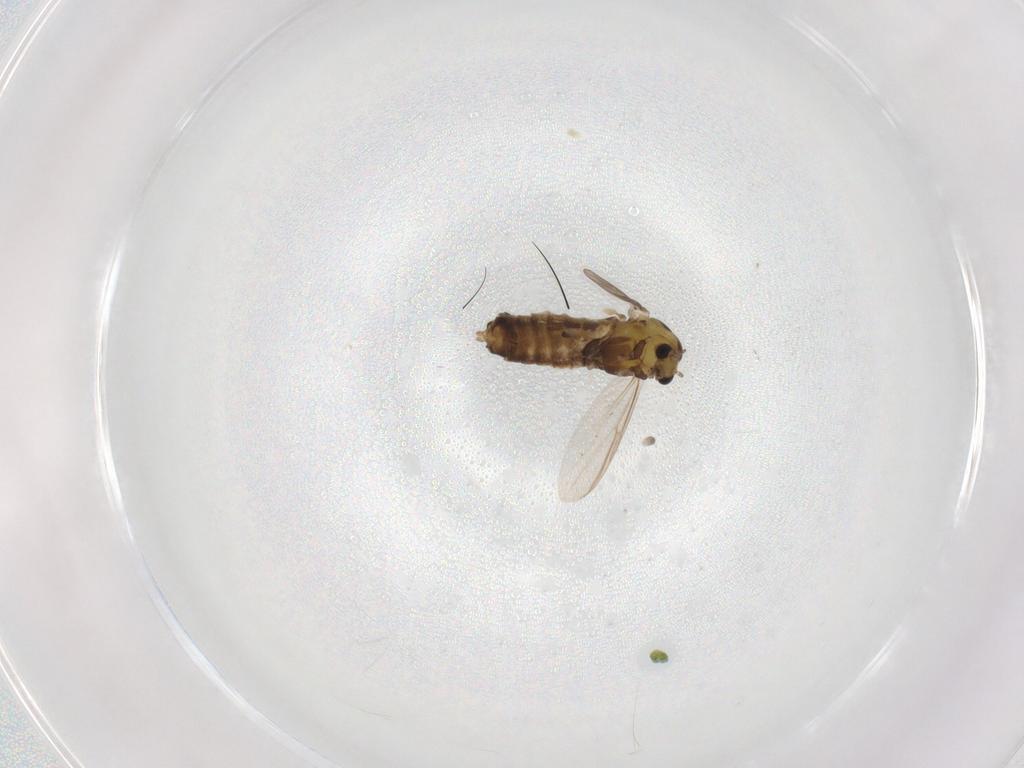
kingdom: Animalia
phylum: Arthropoda
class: Insecta
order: Diptera
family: Chironomidae
